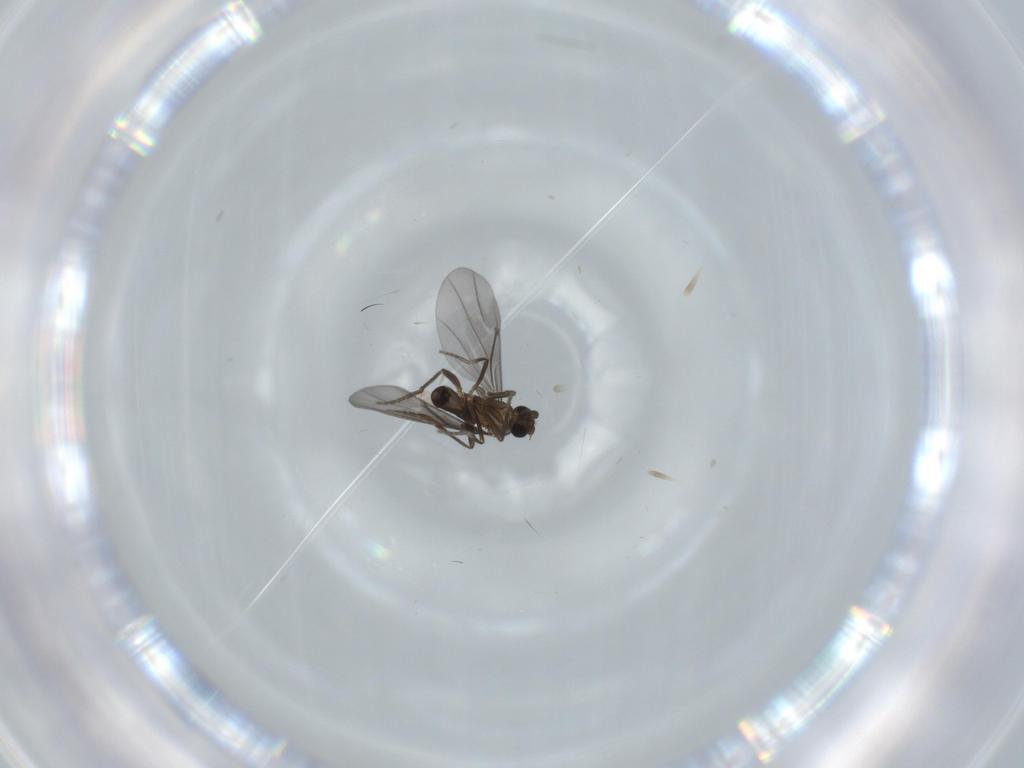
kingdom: Animalia
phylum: Arthropoda
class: Insecta
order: Diptera
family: Phoridae
